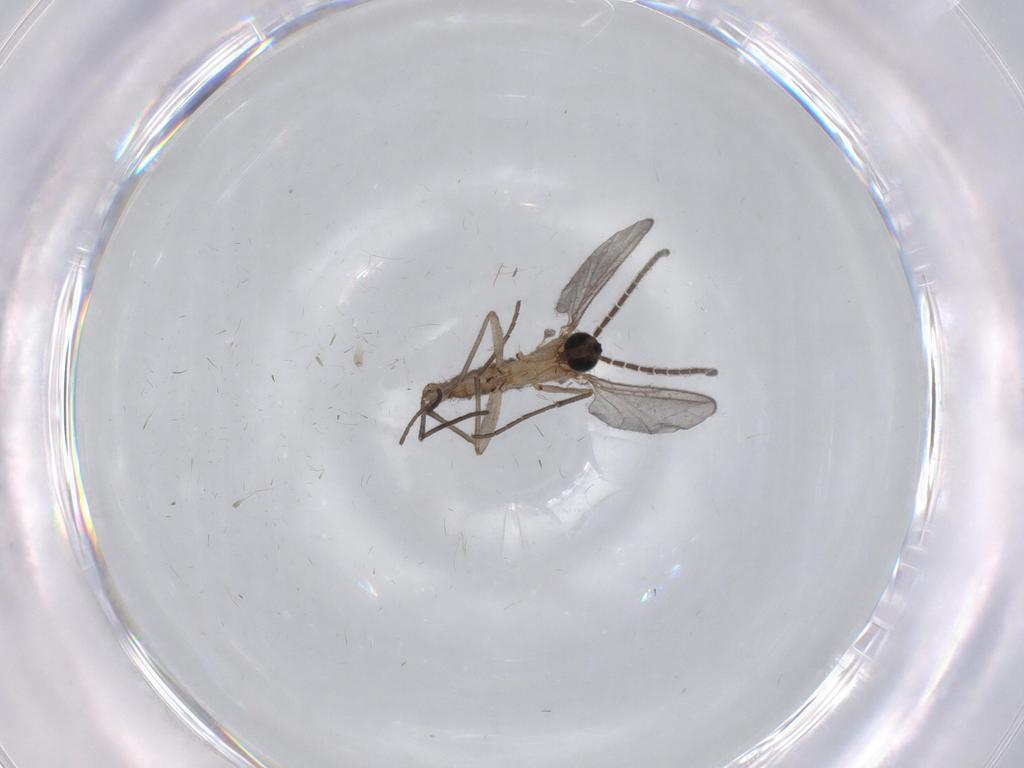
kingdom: Animalia
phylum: Arthropoda
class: Insecta
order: Diptera
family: Sciaridae
